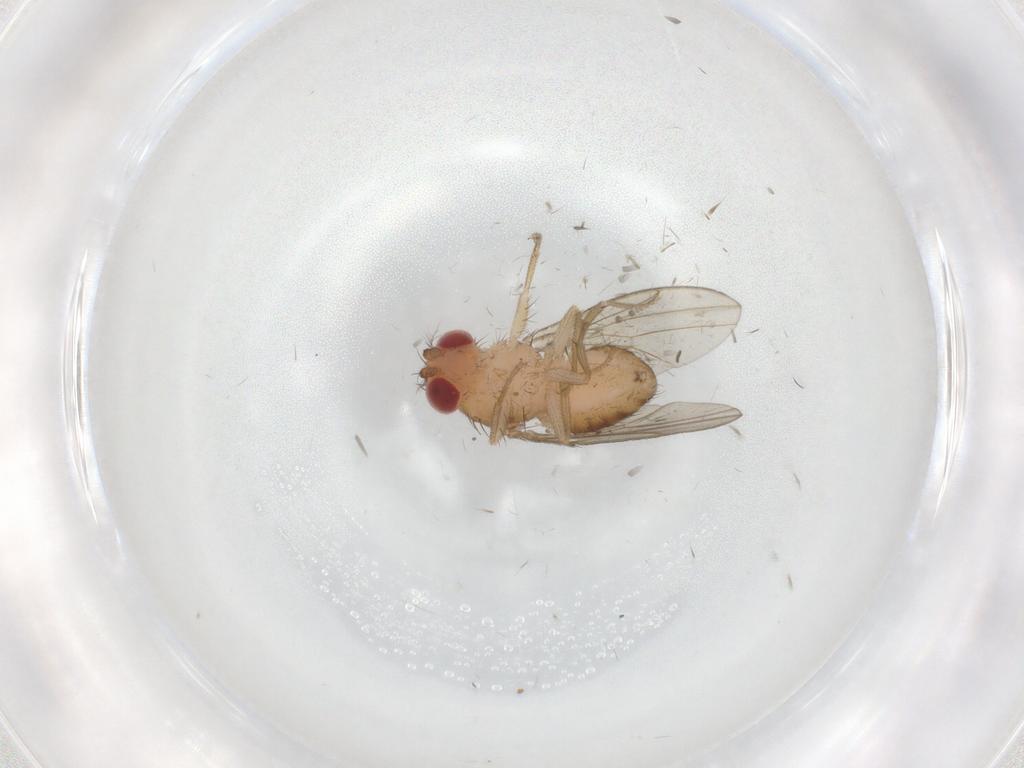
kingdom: Animalia
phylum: Arthropoda
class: Insecta
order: Diptera
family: Drosophilidae
